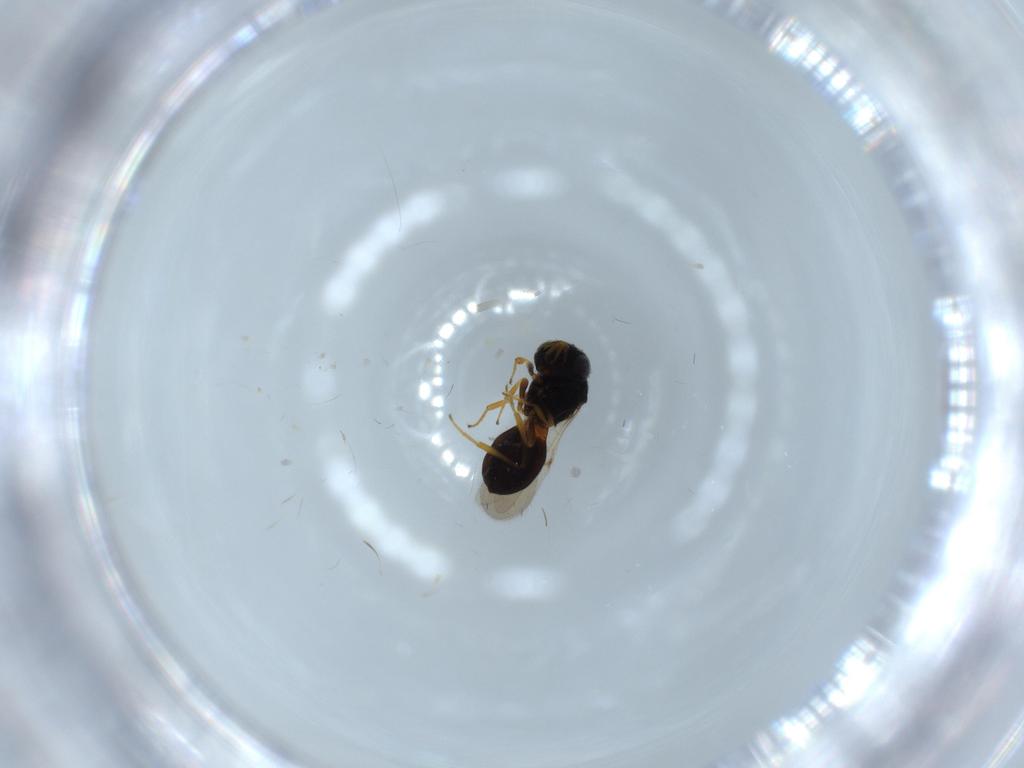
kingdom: Animalia
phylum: Arthropoda
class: Insecta
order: Hymenoptera
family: Scelionidae
